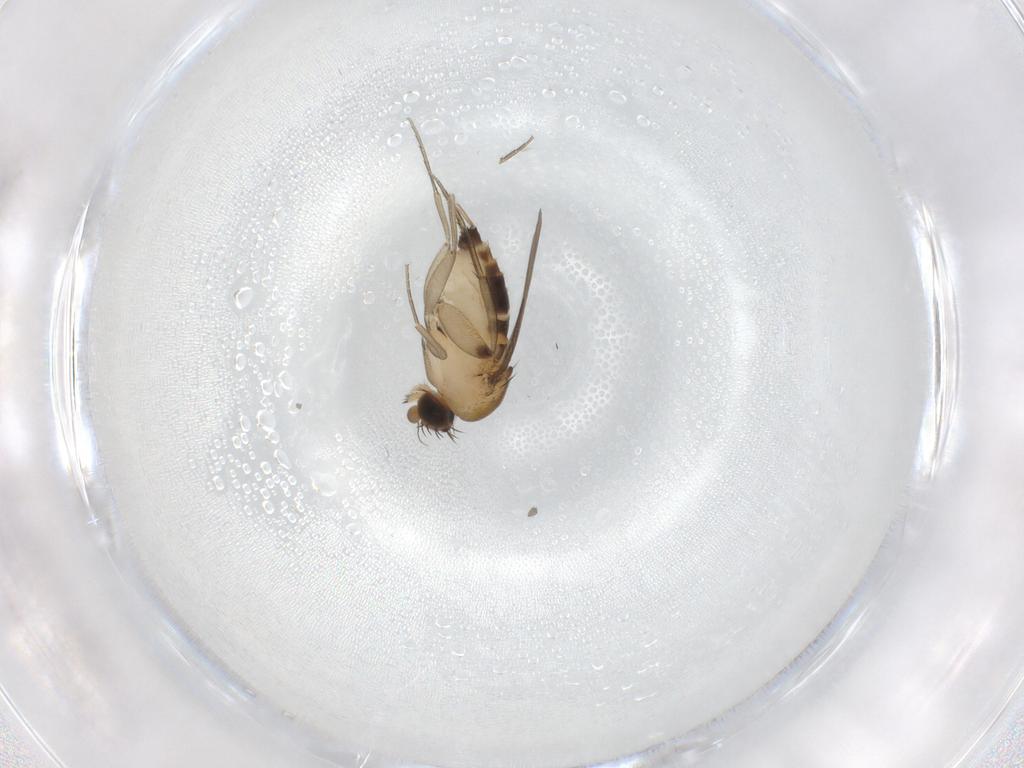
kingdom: Animalia
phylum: Arthropoda
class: Insecta
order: Diptera
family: Phoridae
